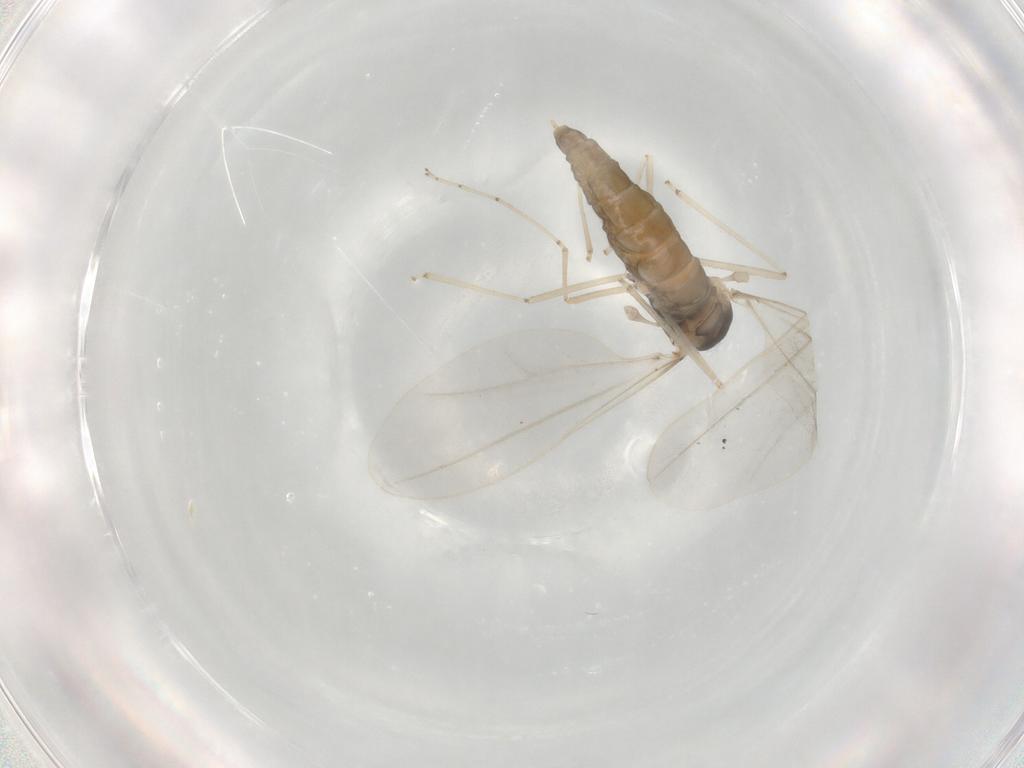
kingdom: Animalia
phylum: Arthropoda
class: Insecta
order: Diptera
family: Cecidomyiidae
